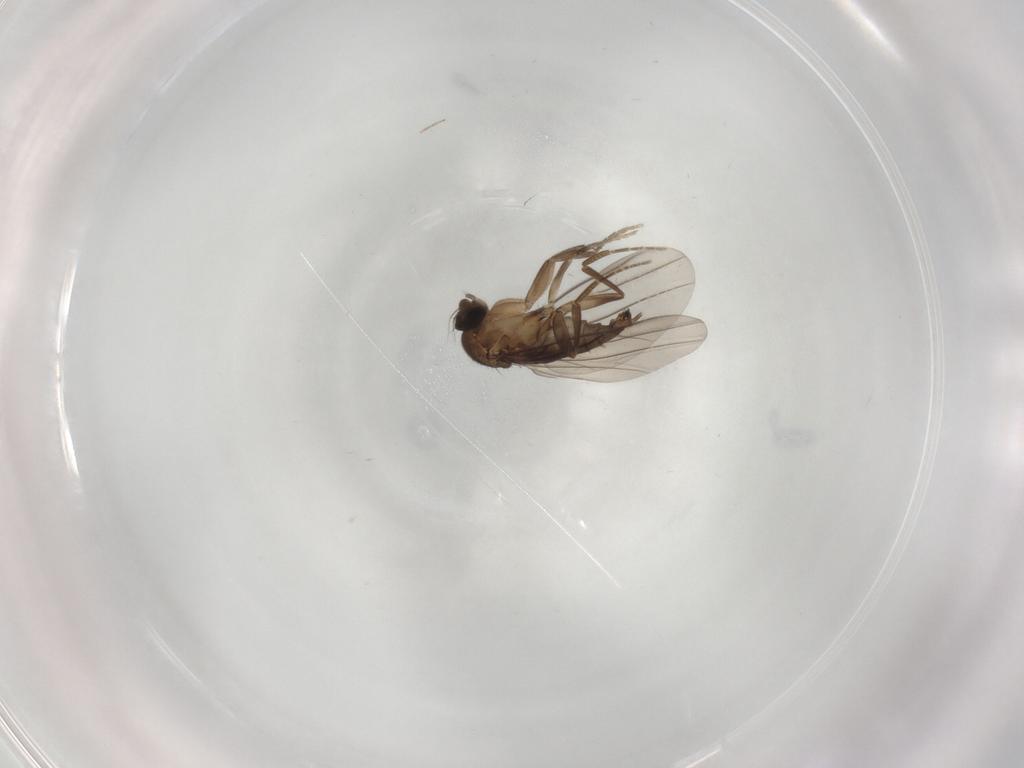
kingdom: Animalia
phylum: Arthropoda
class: Insecta
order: Diptera
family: Phoridae
